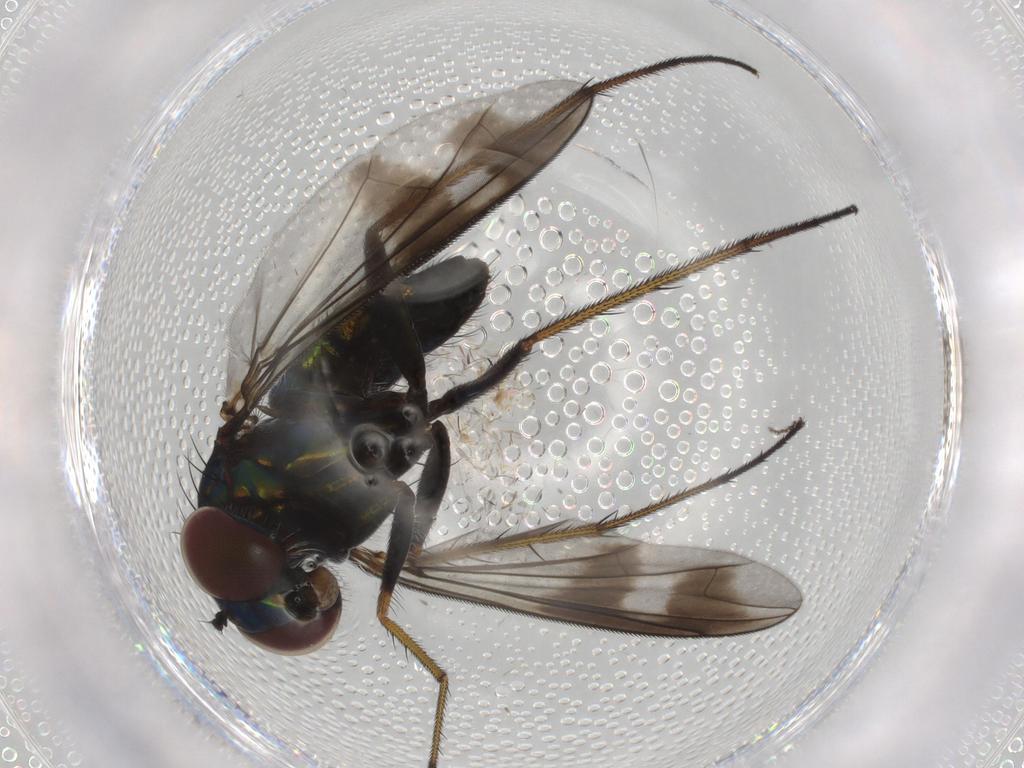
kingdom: Animalia
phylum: Arthropoda
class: Insecta
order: Diptera
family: Dolichopodidae
